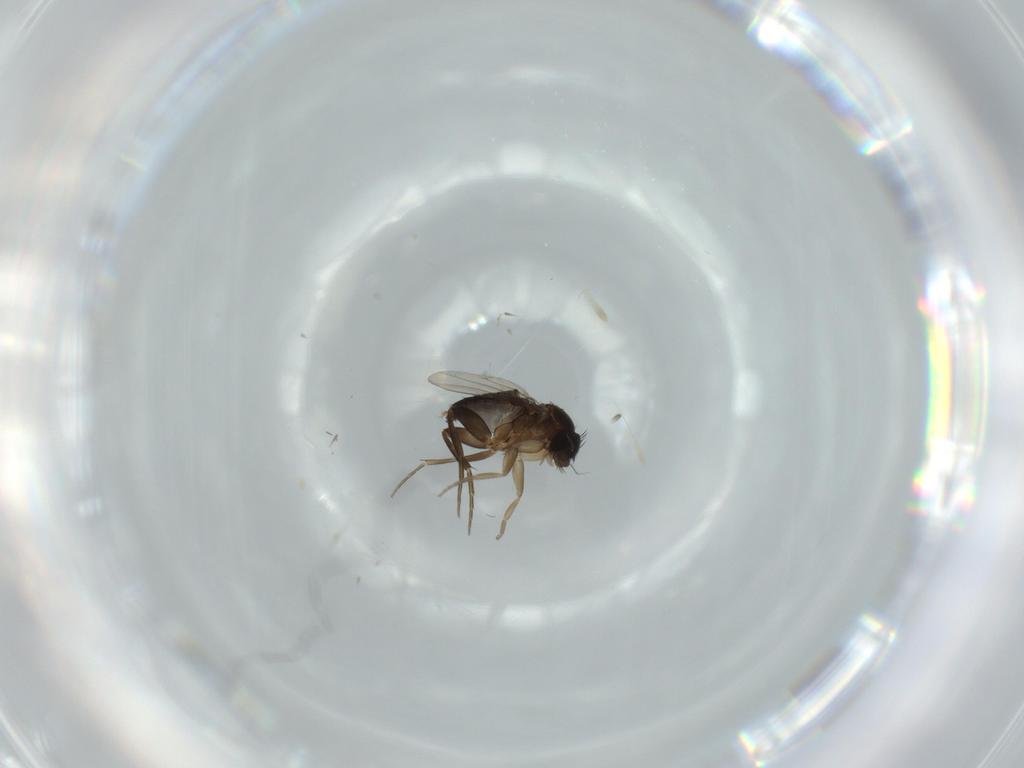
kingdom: Animalia
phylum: Arthropoda
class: Insecta
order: Diptera
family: Phoridae
